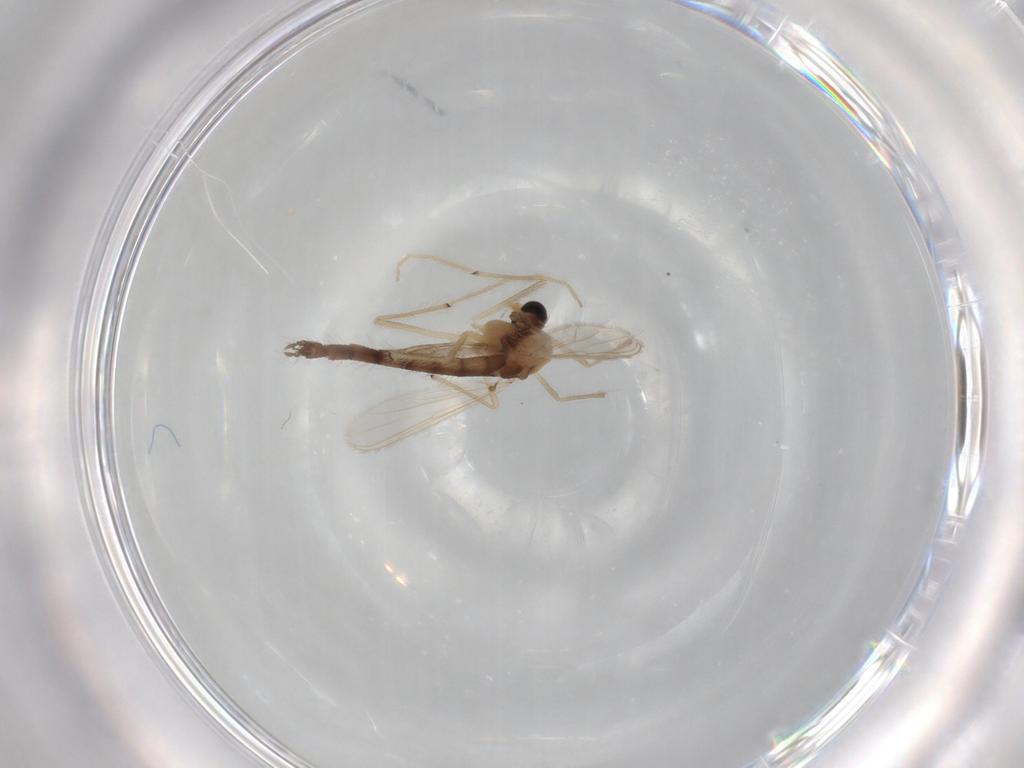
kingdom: Animalia
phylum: Arthropoda
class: Insecta
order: Diptera
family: Chironomidae
